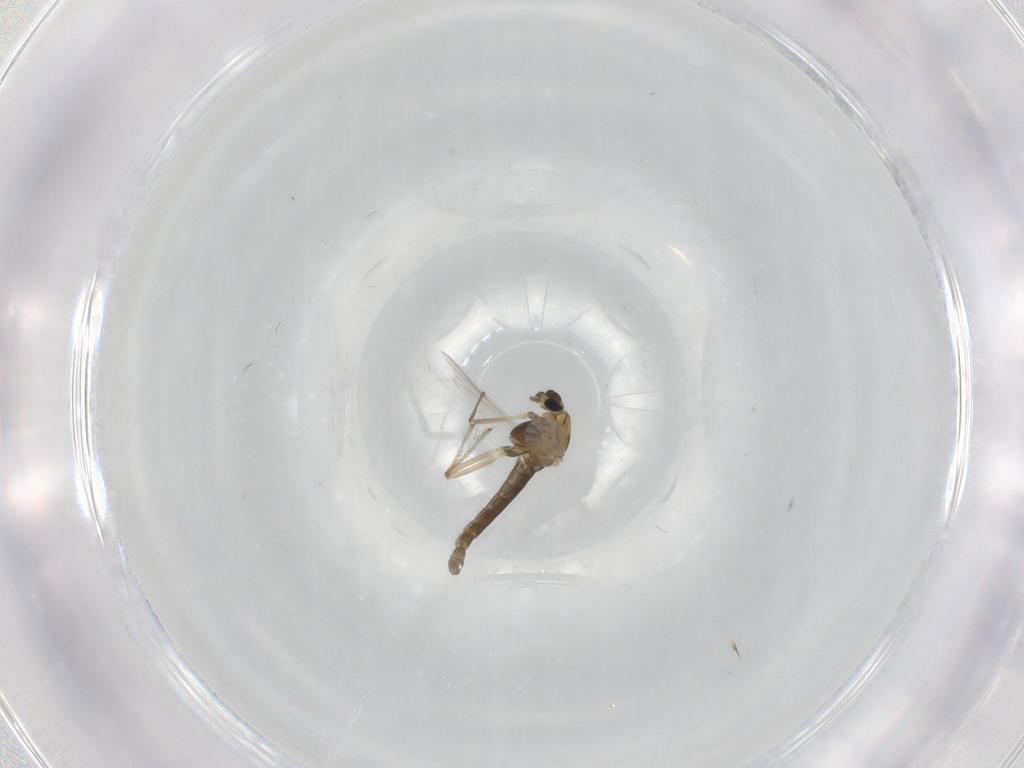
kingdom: Animalia
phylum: Arthropoda
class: Insecta
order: Diptera
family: Chironomidae
